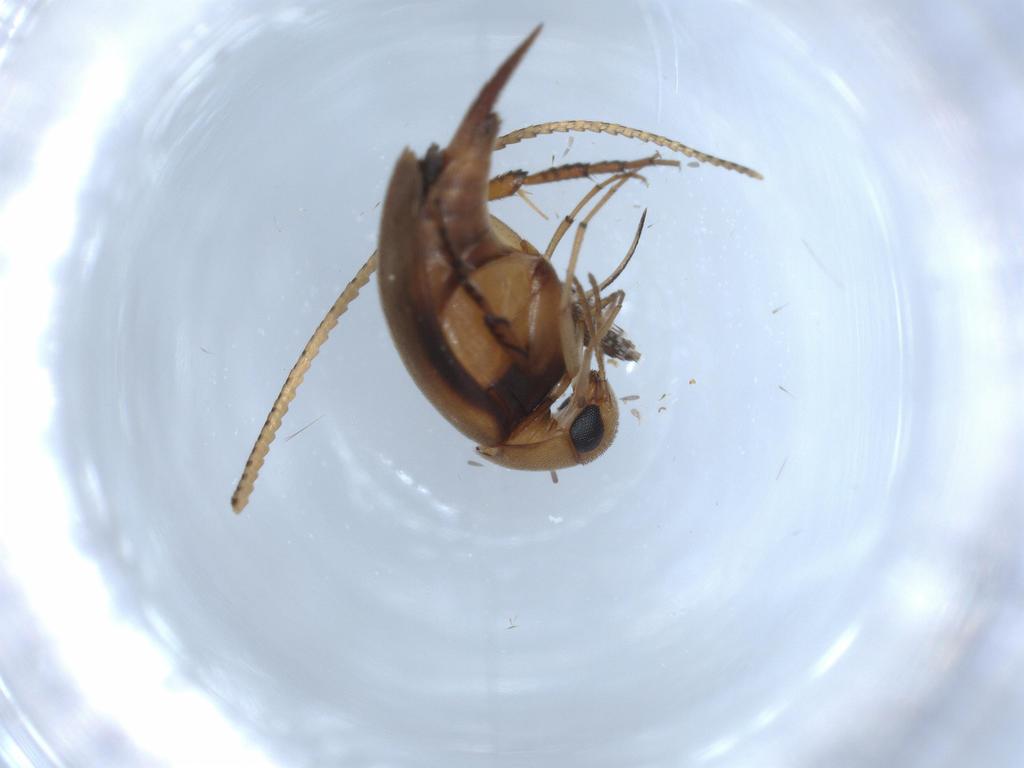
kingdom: Animalia
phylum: Arthropoda
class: Insecta
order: Coleoptera
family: Mordellidae
